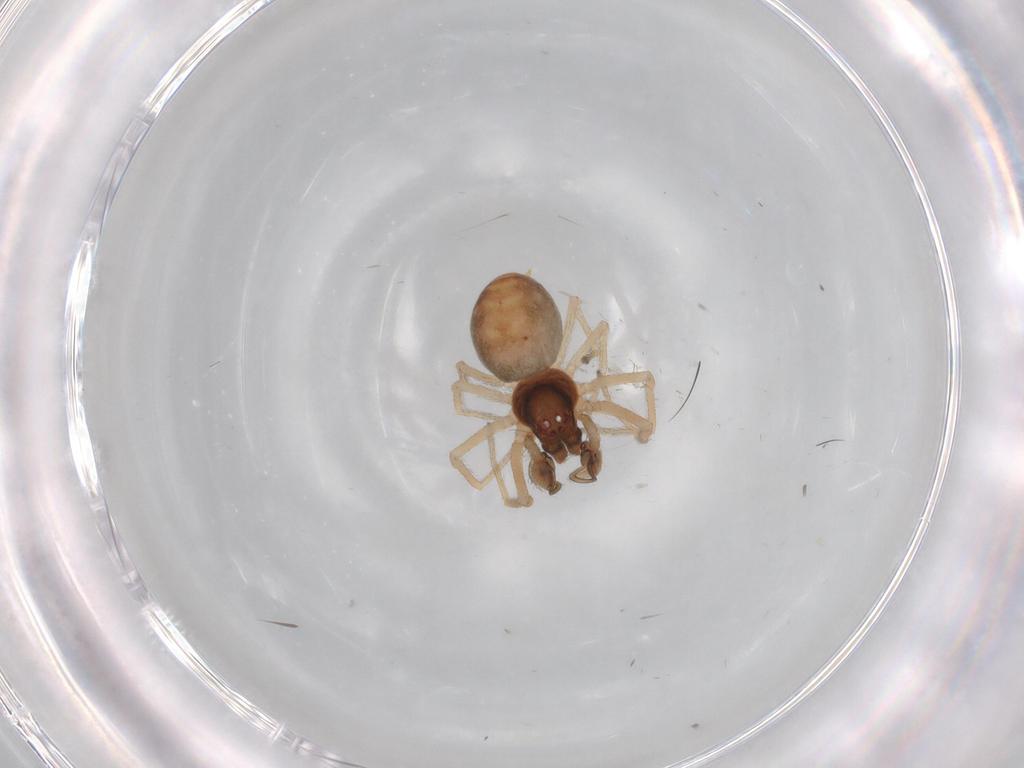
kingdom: Animalia
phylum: Arthropoda
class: Arachnida
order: Araneae
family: Dictynidae
